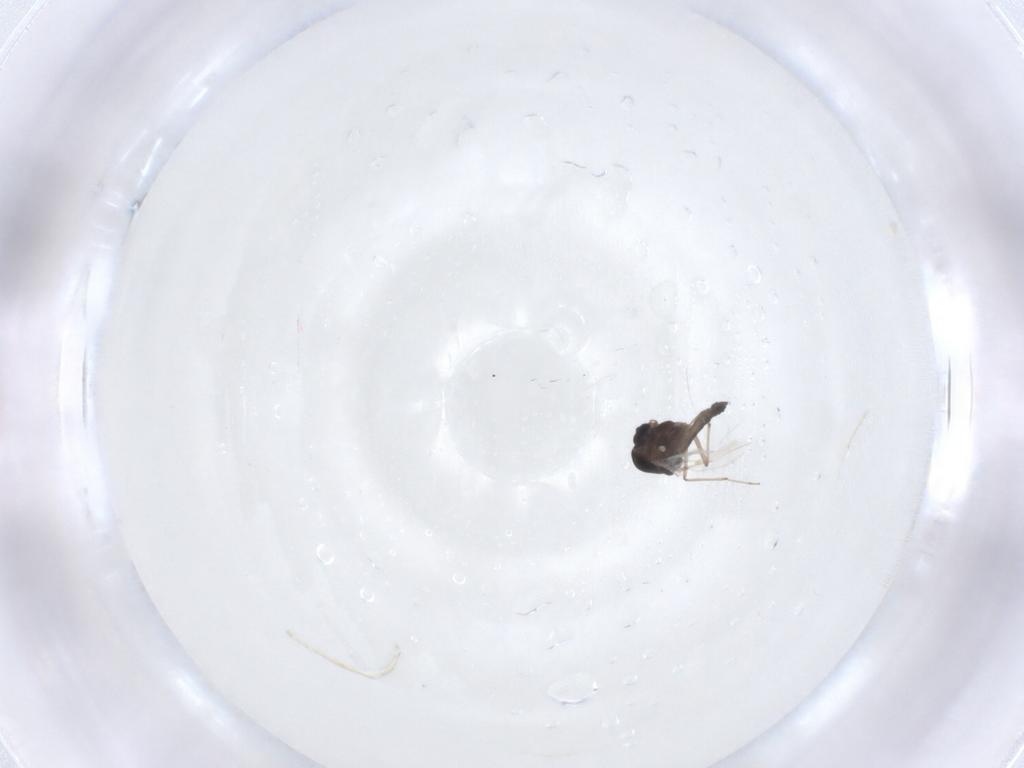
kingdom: Animalia
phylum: Arthropoda
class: Insecta
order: Diptera
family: Chironomidae
